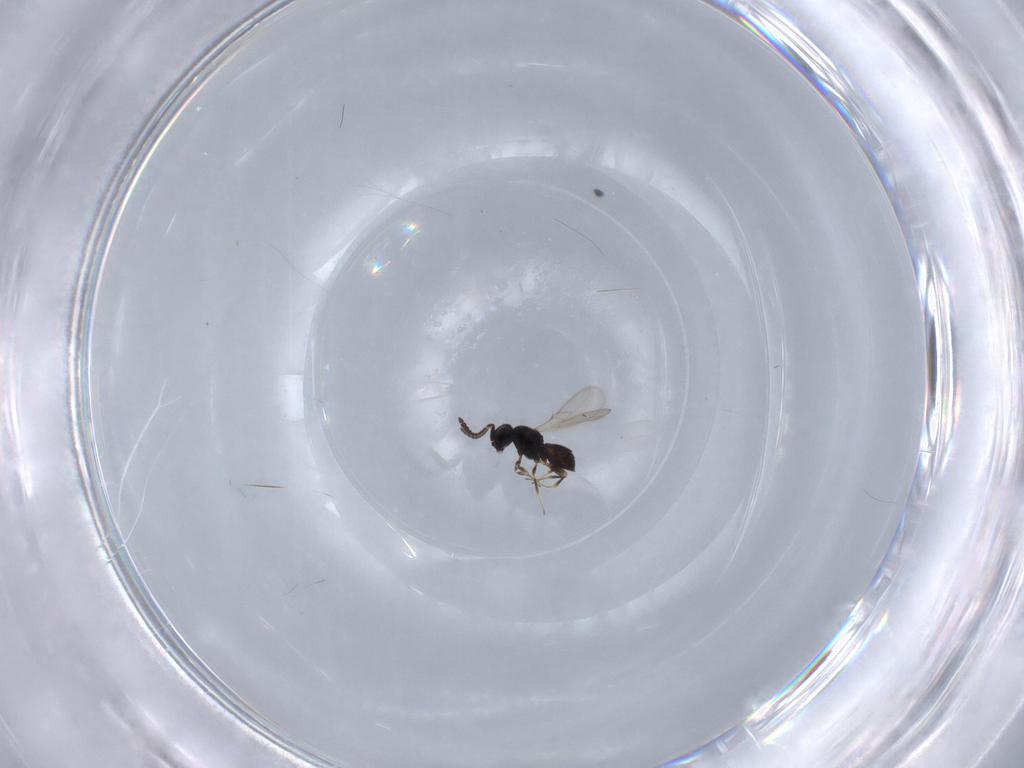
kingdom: Animalia
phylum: Arthropoda
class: Insecta
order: Hymenoptera
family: Scelionidae
